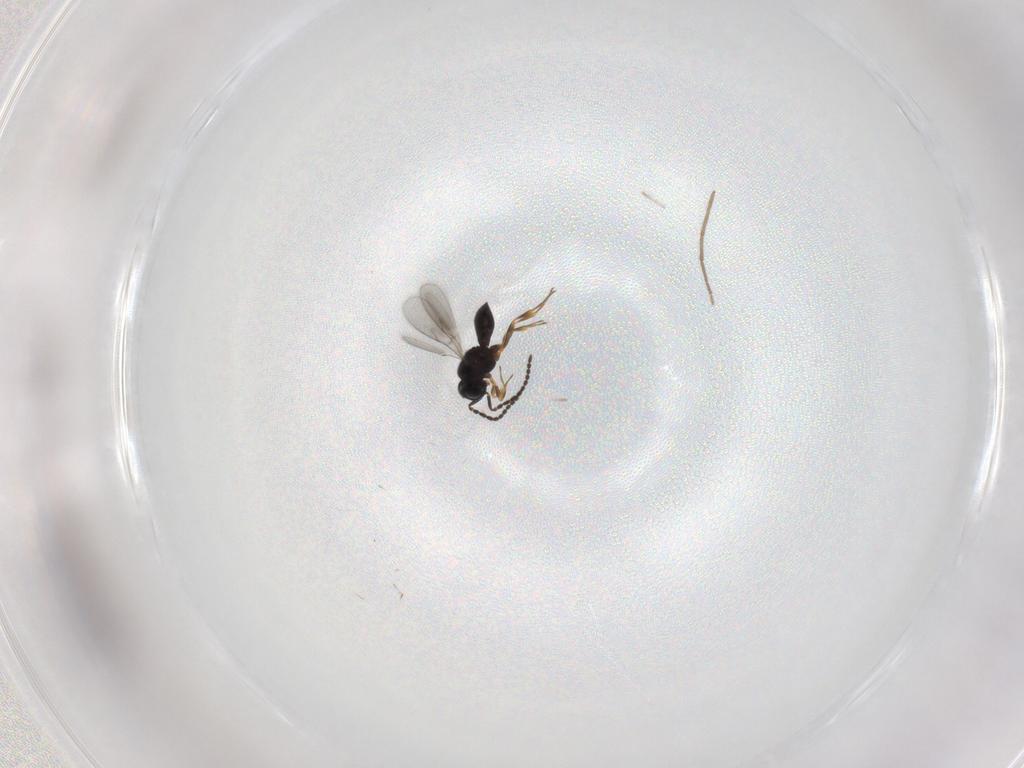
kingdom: Animalia
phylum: Arthropoda
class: Insecta
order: Hymenoptera
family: Scelionidae
